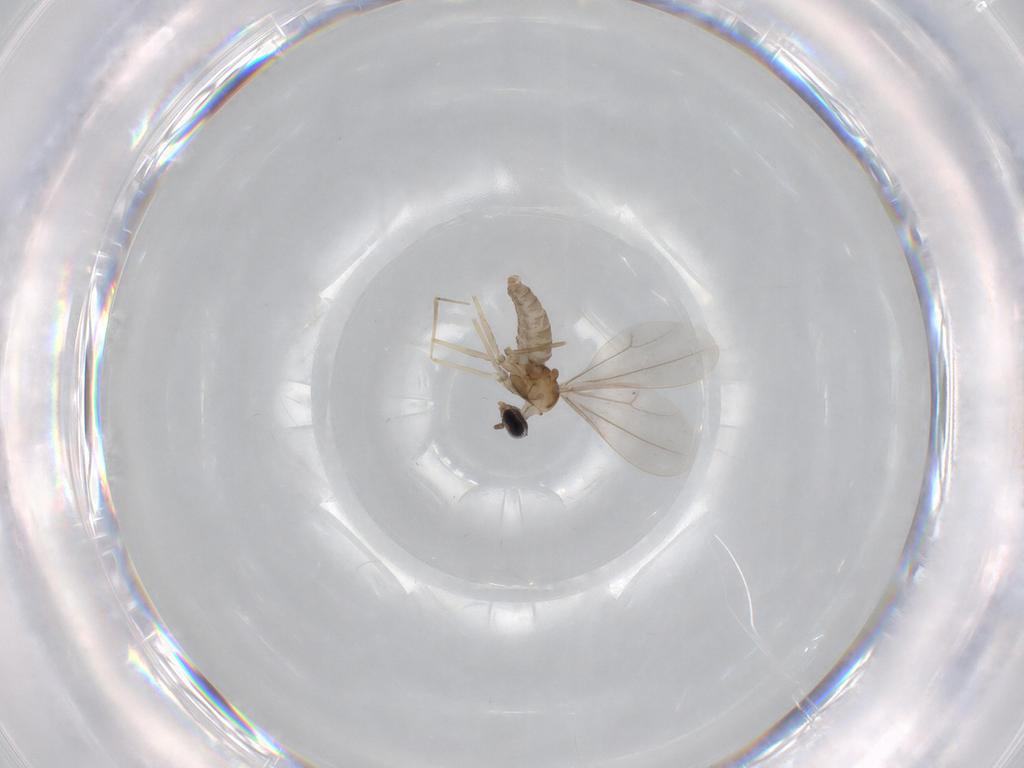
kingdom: Animalia
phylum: Arthropoda
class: Insecta
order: Diptera
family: Cecidomyiidae
